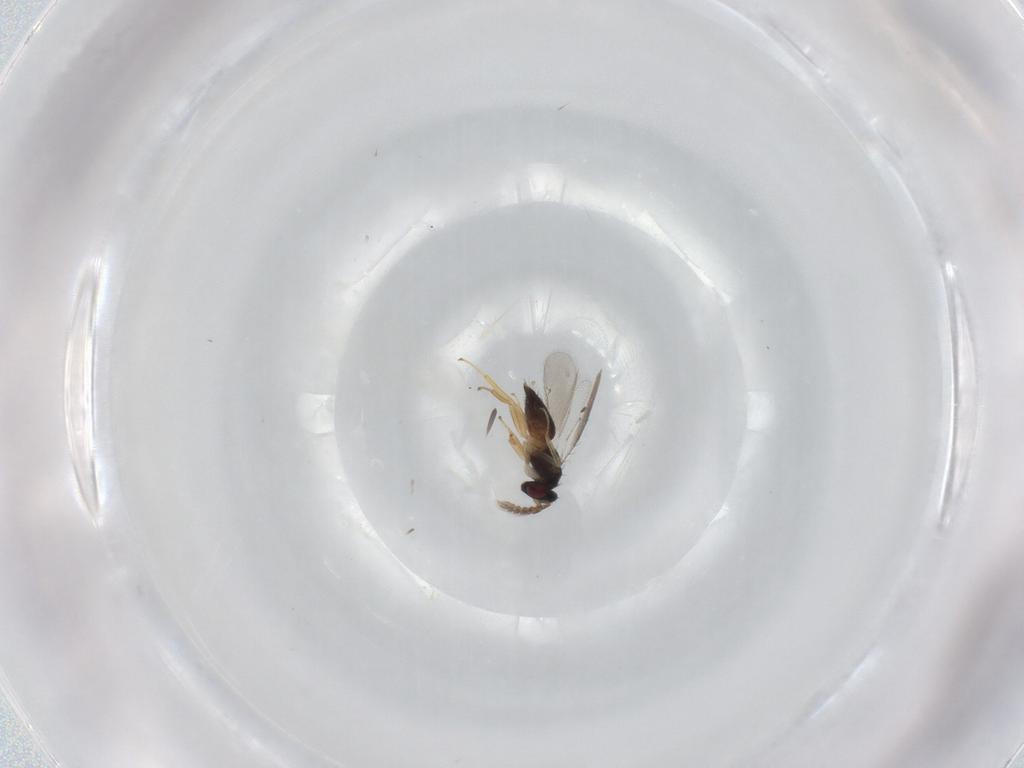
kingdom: Animalia
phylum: Arthropoda
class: Insecta
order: Hymenoptera
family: Eulophidae
